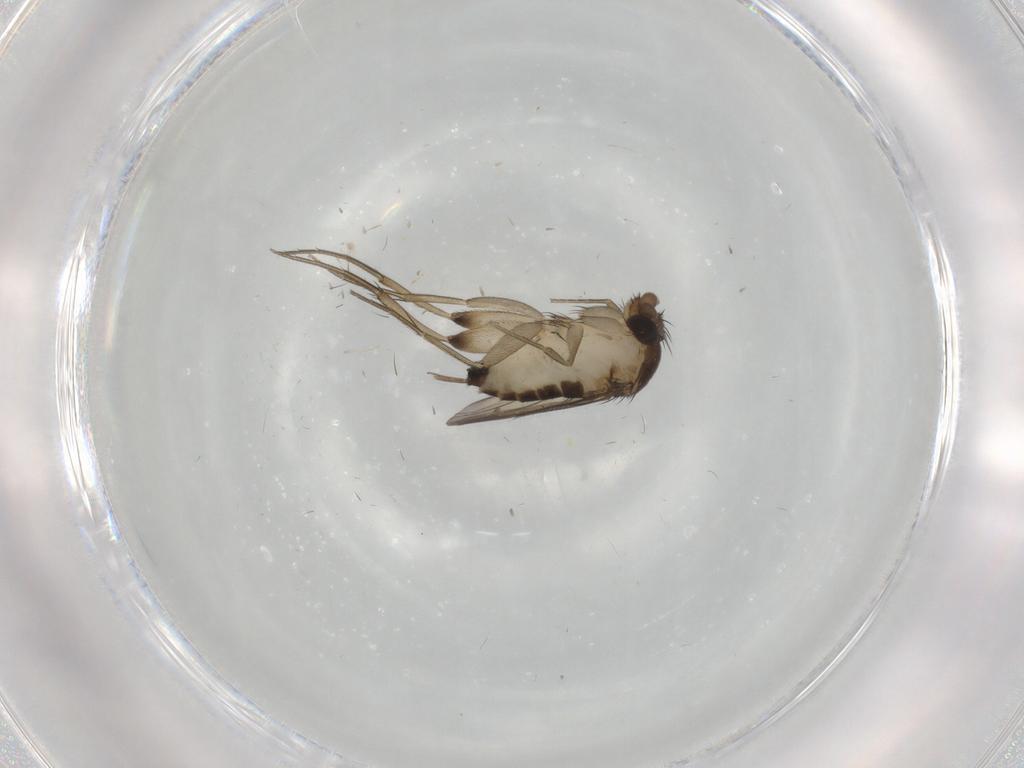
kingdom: Animalia
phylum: Arthropoda
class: Insecta
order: Diptera
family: Phoridae
